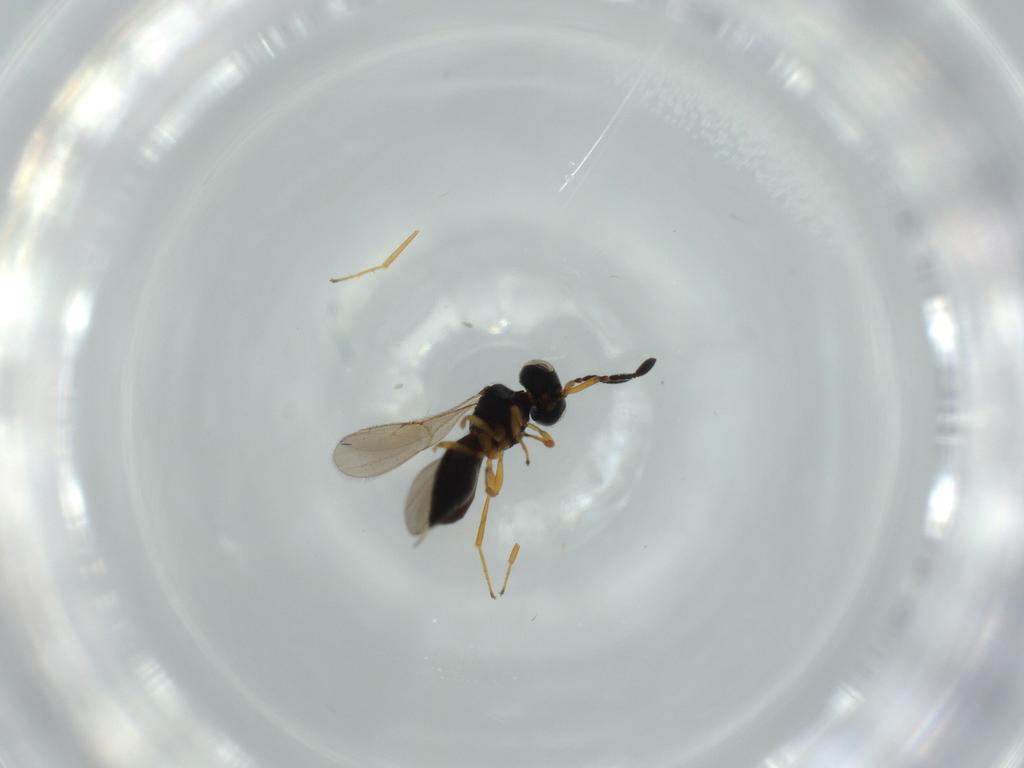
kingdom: Animalia
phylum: Arthropoda
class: Insecta
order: Hymenoptera
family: Scelionidae
